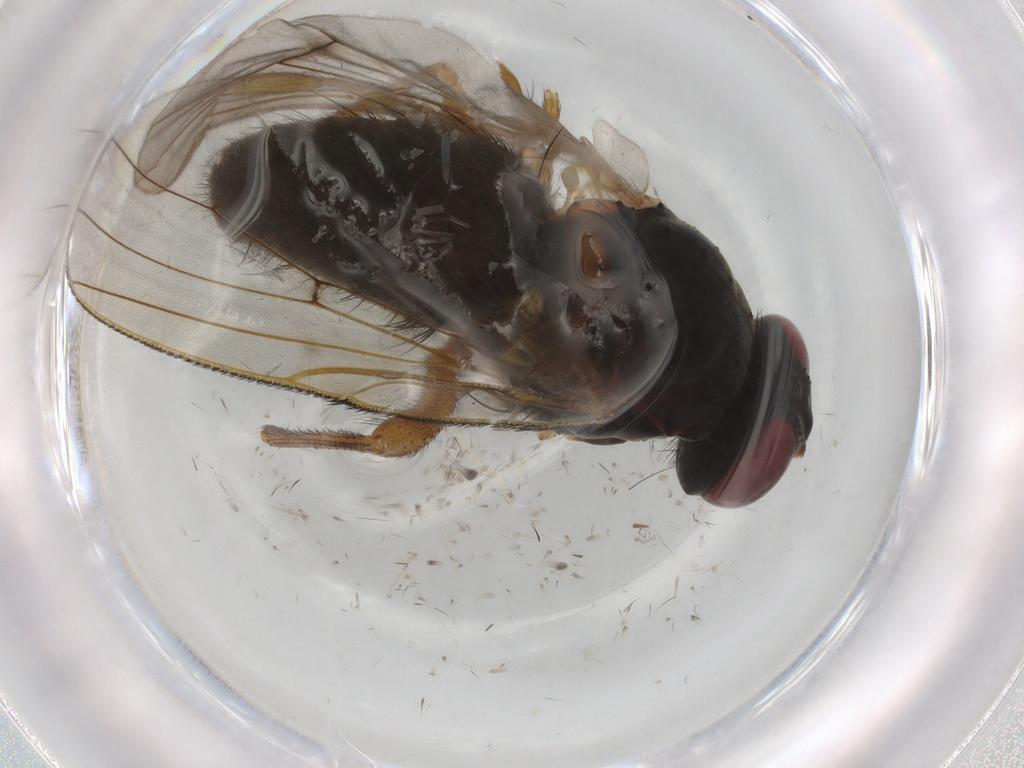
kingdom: Animalia
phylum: Arthropoda
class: Insecta
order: Diptera
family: Muscidae
